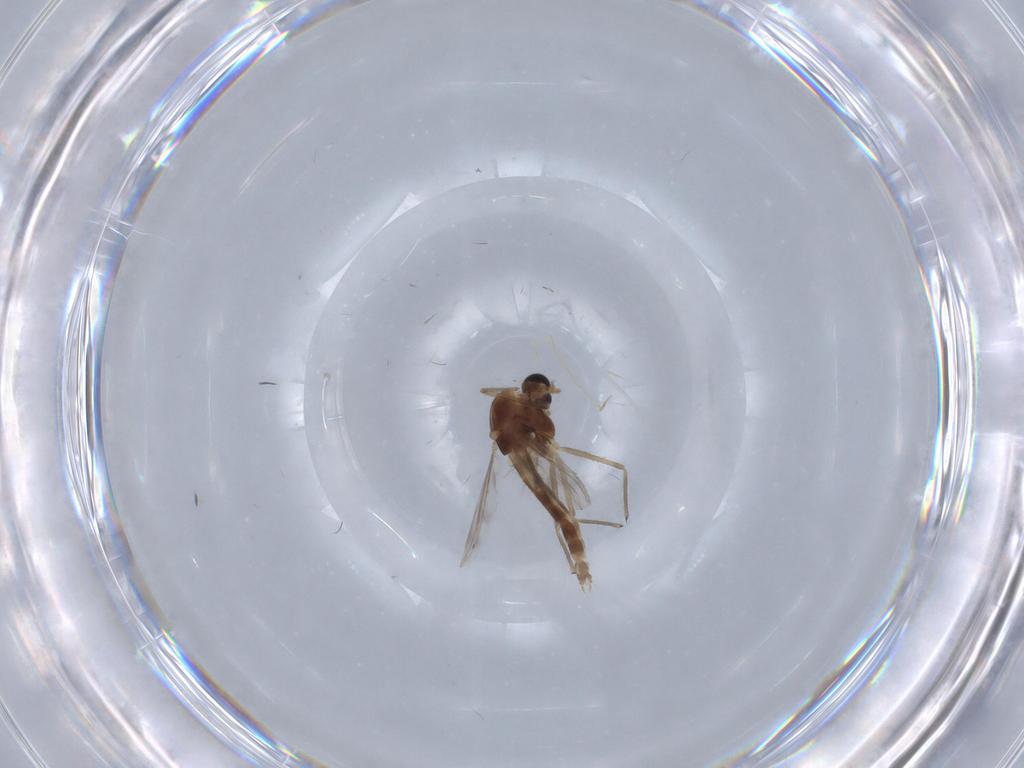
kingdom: Animalia
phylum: Arthropoda
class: Insecta
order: Diptera
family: Chironomidae
